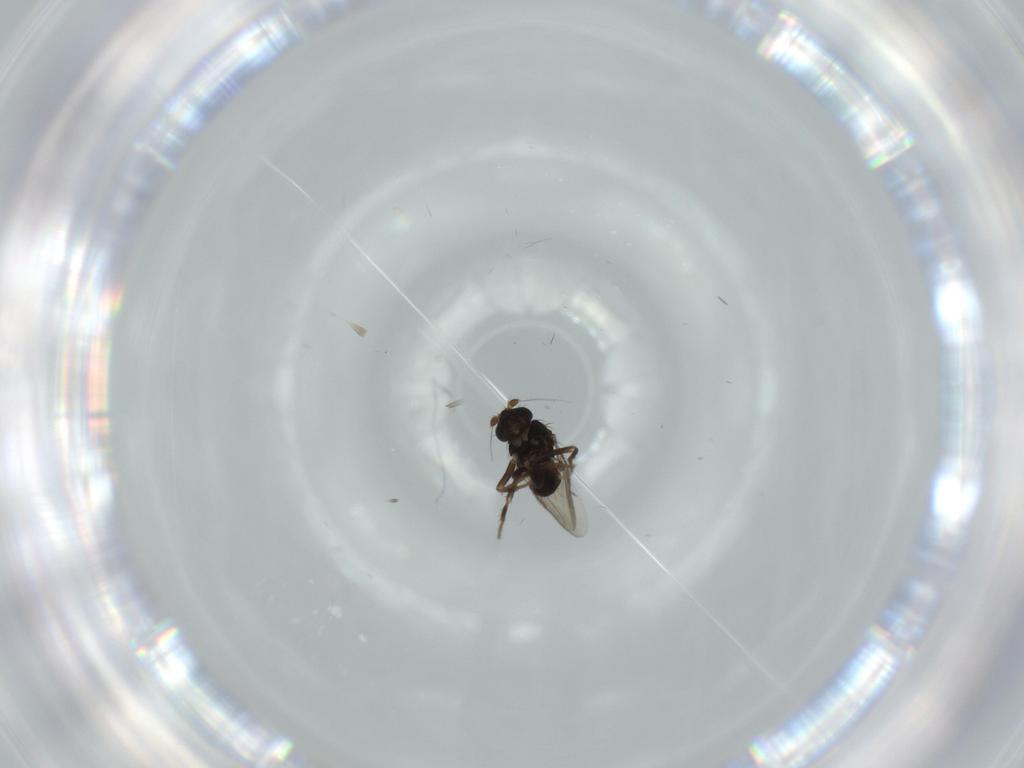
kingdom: Animalia
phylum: Arthropoda
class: Insecta
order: Diptera
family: Sphaeroceridae
